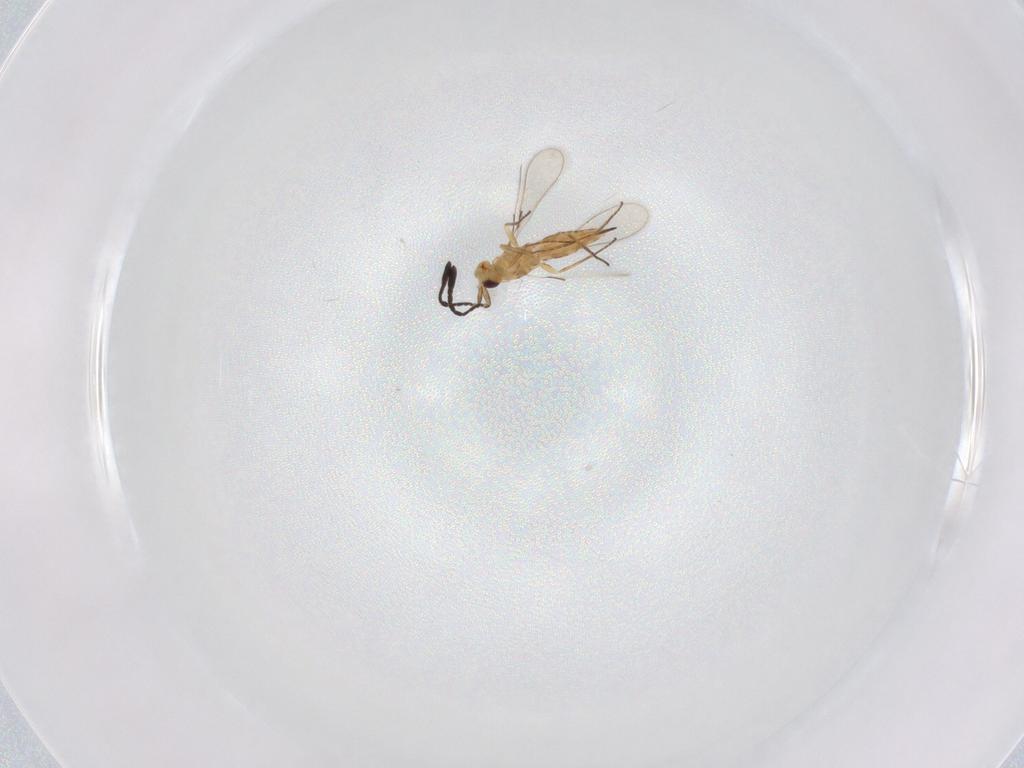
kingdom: Animalia
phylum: Arthropoda
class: Insecta
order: Hymenoptera
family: Mymaridae
